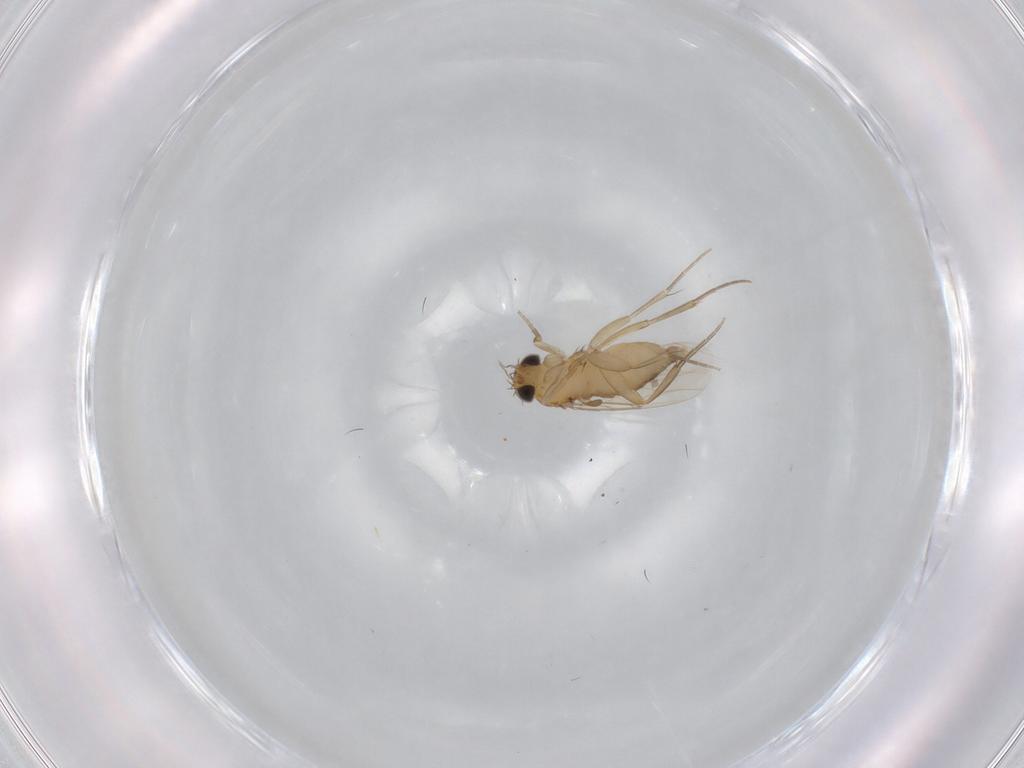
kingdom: Animalia
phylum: Arthropoda
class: Insecta
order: Diptera
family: Phoridae
